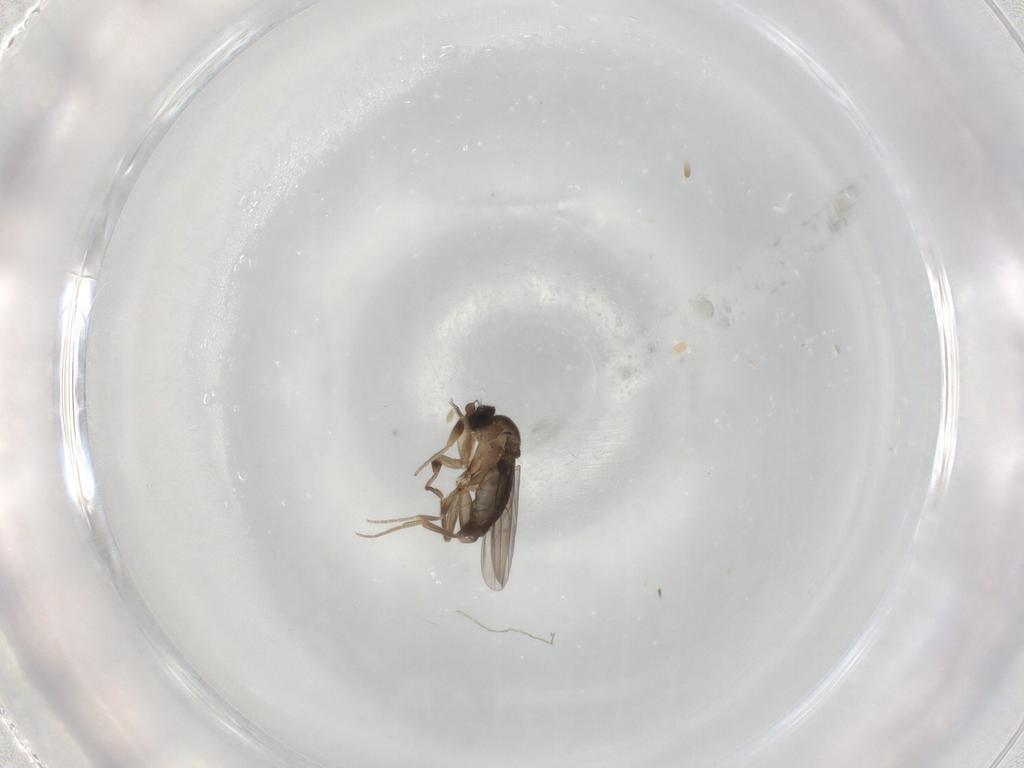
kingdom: Animalia
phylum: Arthropoda
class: Insecta
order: Diptera
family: Phoridae
